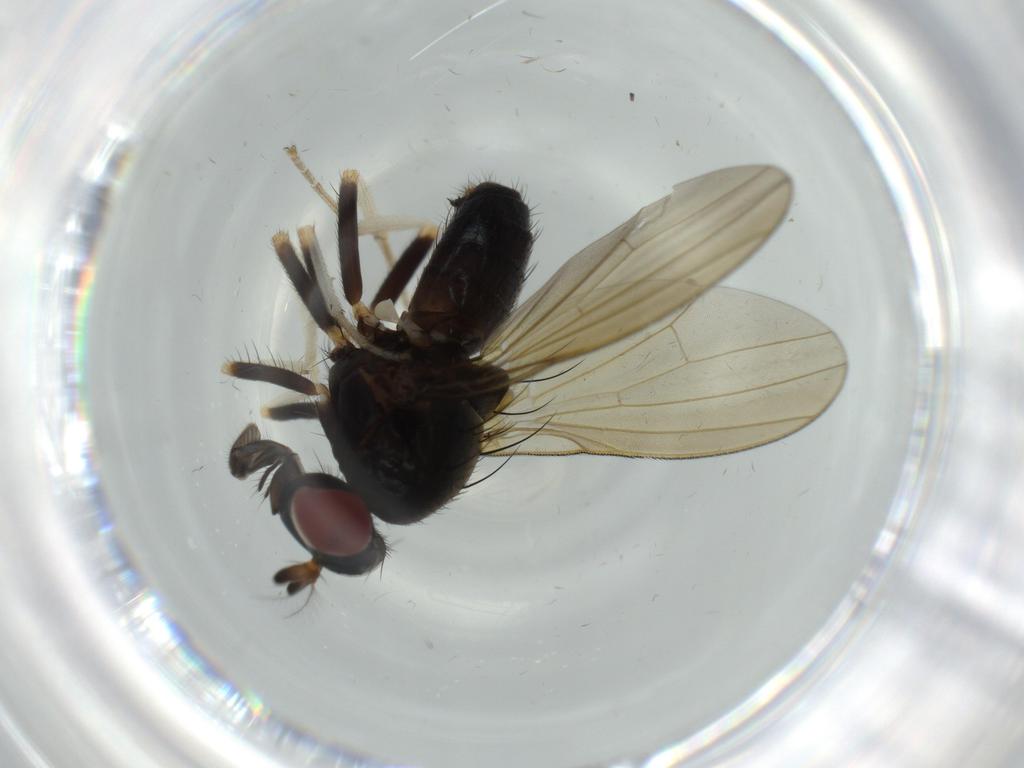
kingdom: Animalia
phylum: Arthropoda
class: Insecta
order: Diptera
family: Lauxaniidae
